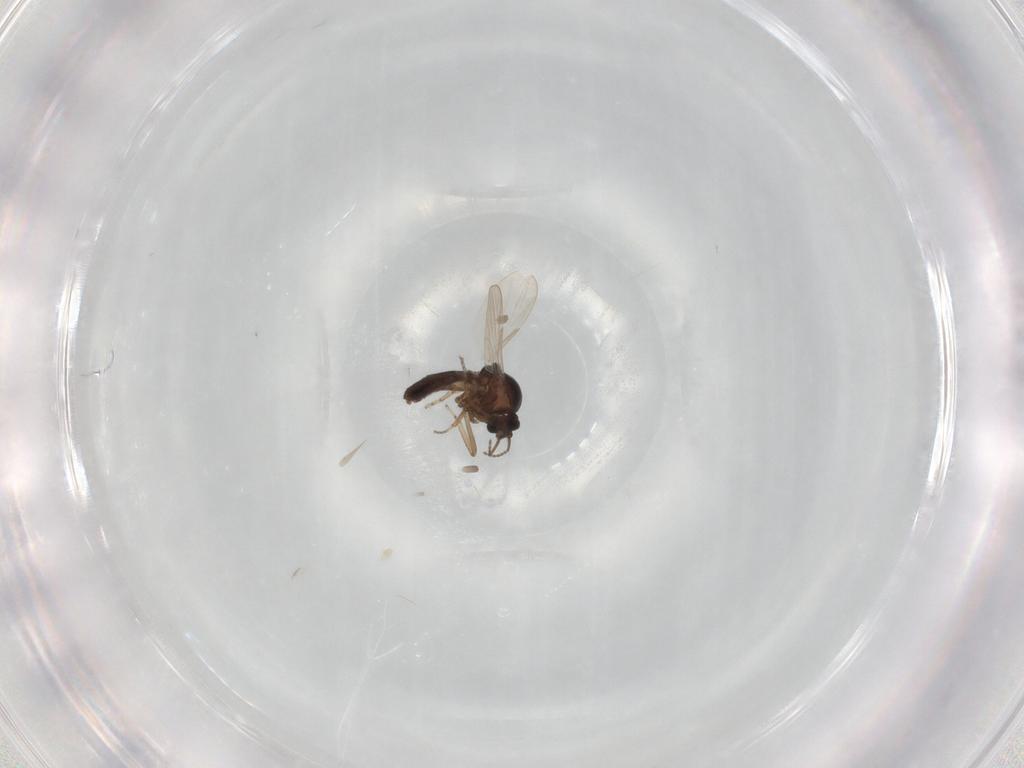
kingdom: Animalia
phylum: Arthropoda
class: Insecta
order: Diptera
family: Ceratopogonidae
